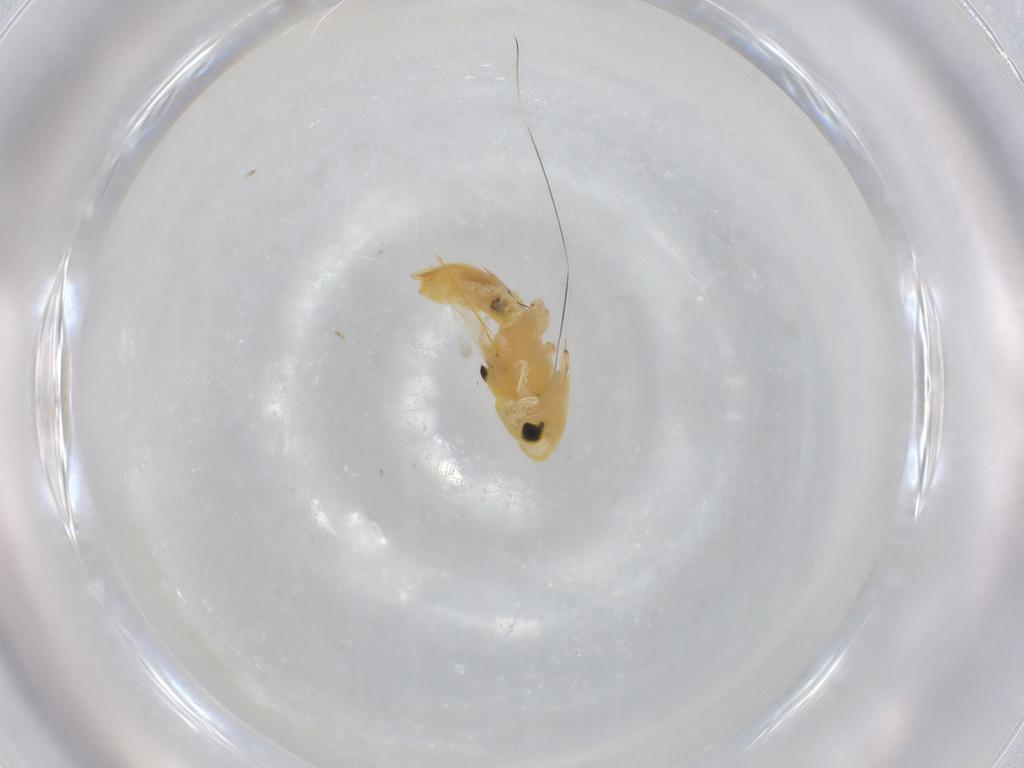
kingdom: Animalia
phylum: Arthropoda
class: Insecta
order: Hemiptera
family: Cicadellidae
